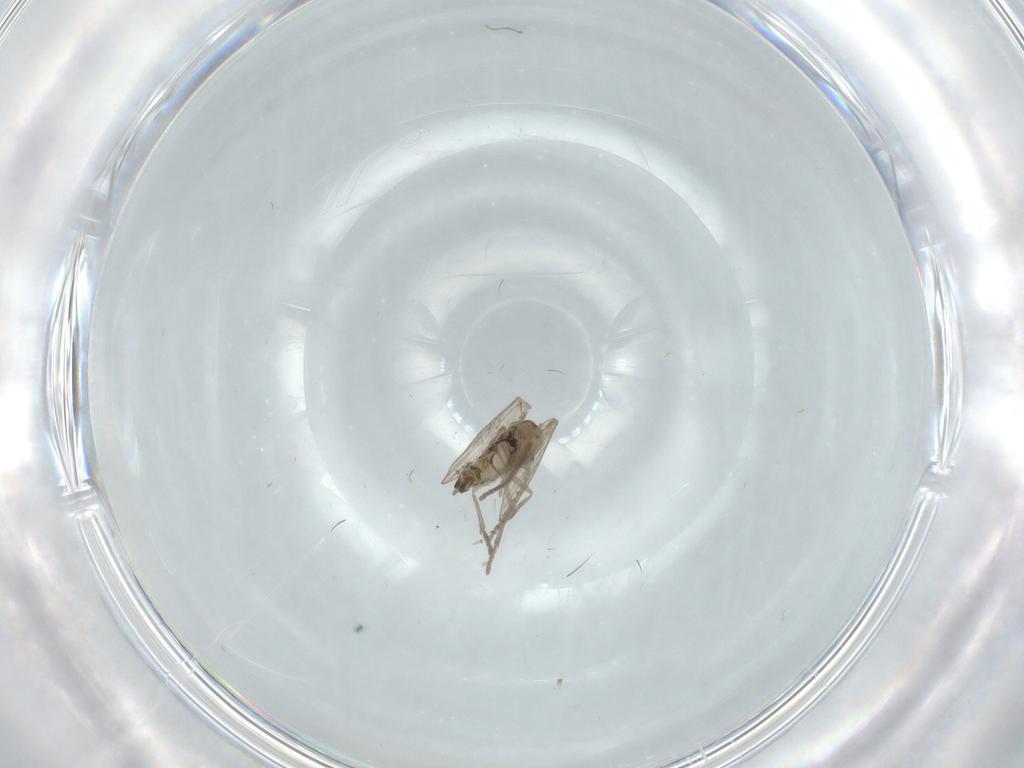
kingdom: Animalia
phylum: Arthropoda
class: Insecta
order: Diptera
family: Psychodidae
